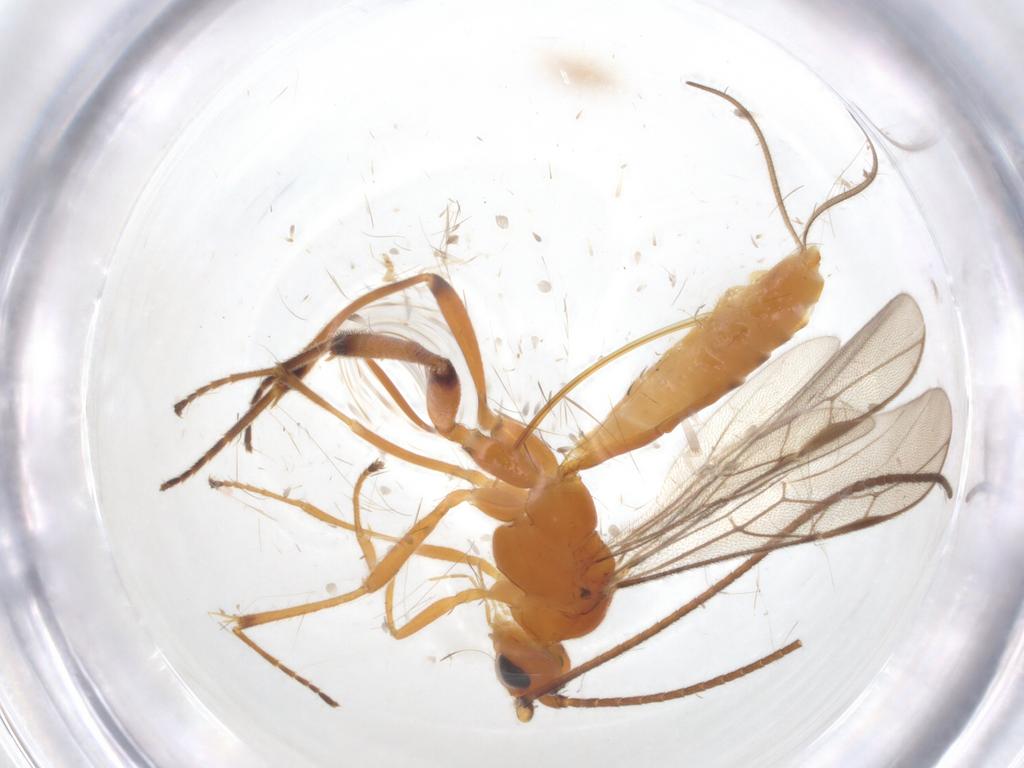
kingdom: Animalia
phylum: Arthropoda
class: Insecta
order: Hymenoptera
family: Braconidae
